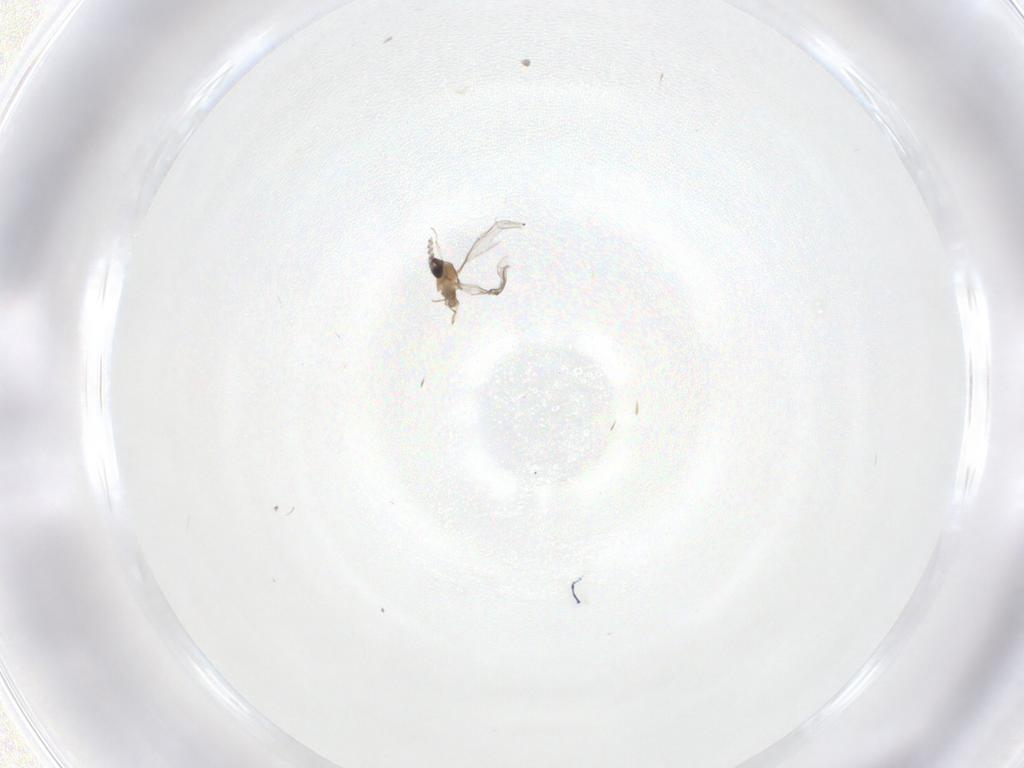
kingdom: Animalia
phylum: Arthropoda
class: Insecta
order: Diptera
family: Cecidomyiidae
